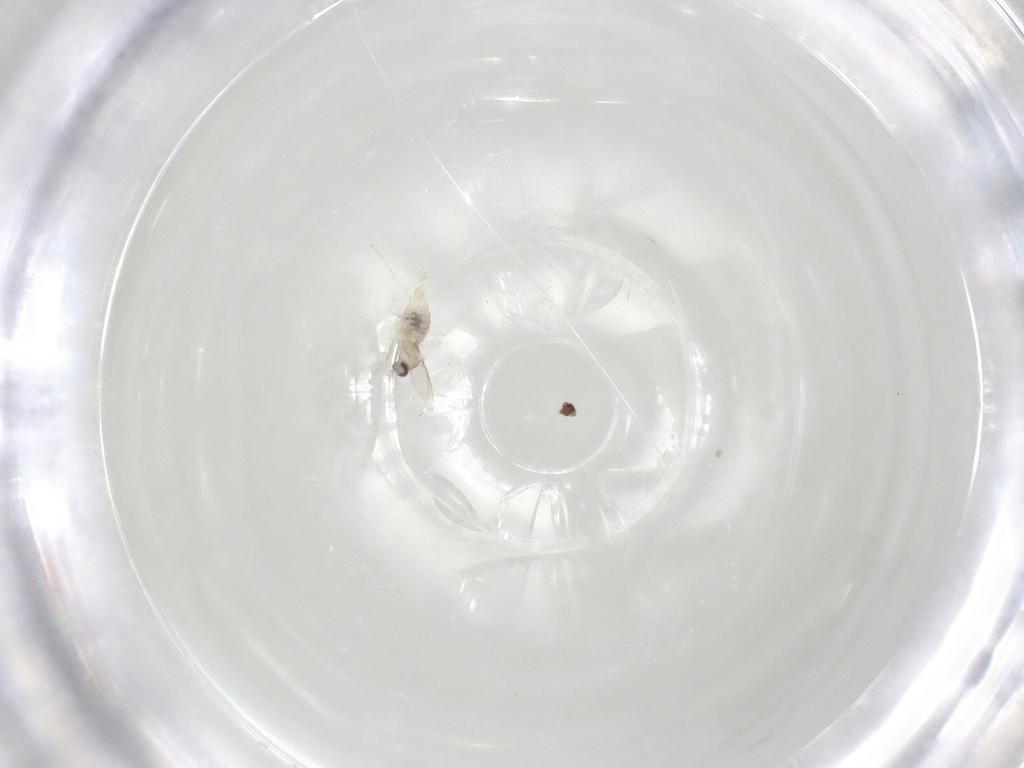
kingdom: Animalia
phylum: Arthropoda
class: Insecta
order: Diptera
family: Cecidomyiidae
